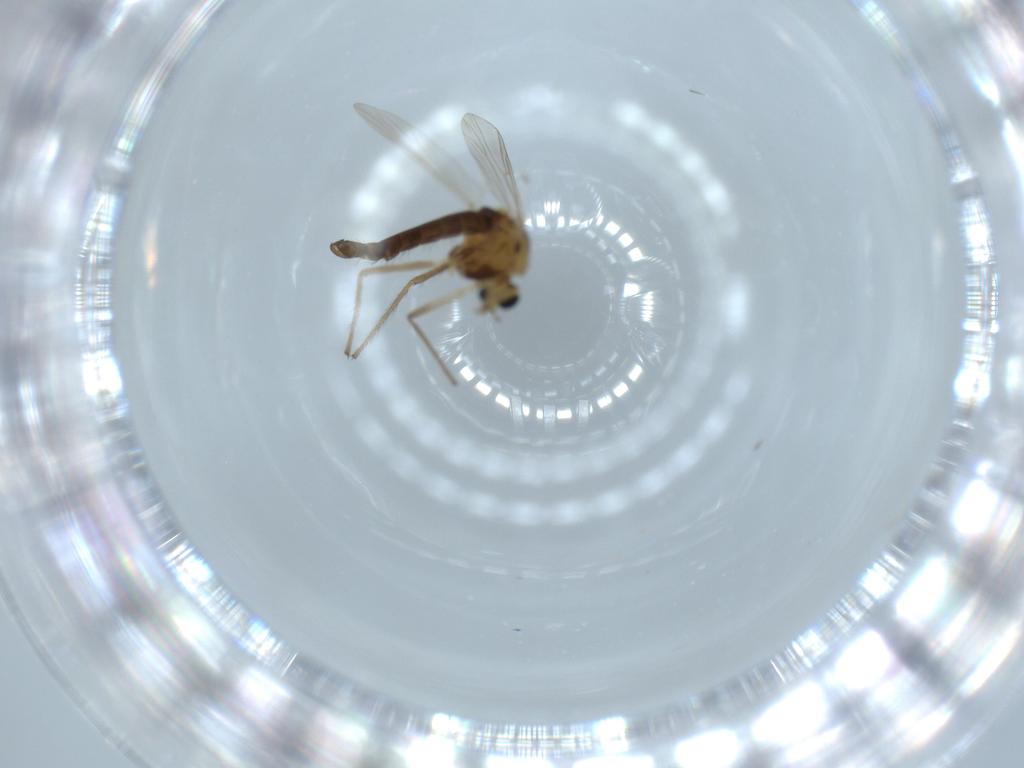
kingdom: Animalia
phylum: Arthropoda
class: Insecta
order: Diptera
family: Chironomidae
